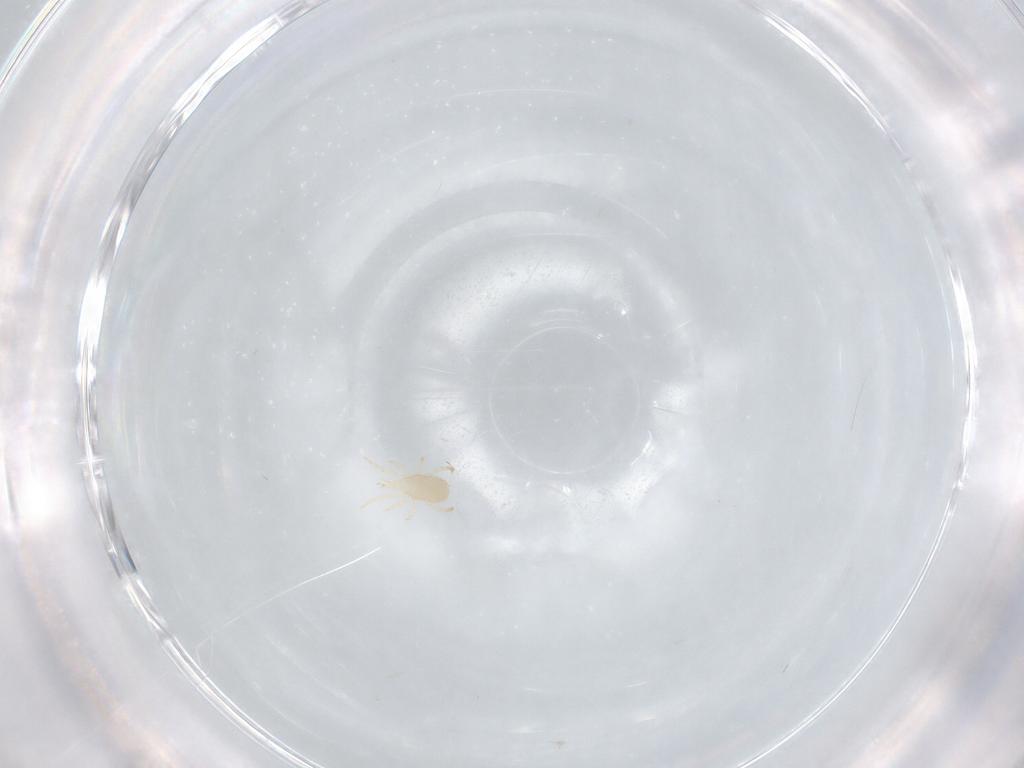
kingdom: Animalia
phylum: Arthropoda
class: Arachnida
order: Mesostigmata
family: Blattisociidae
